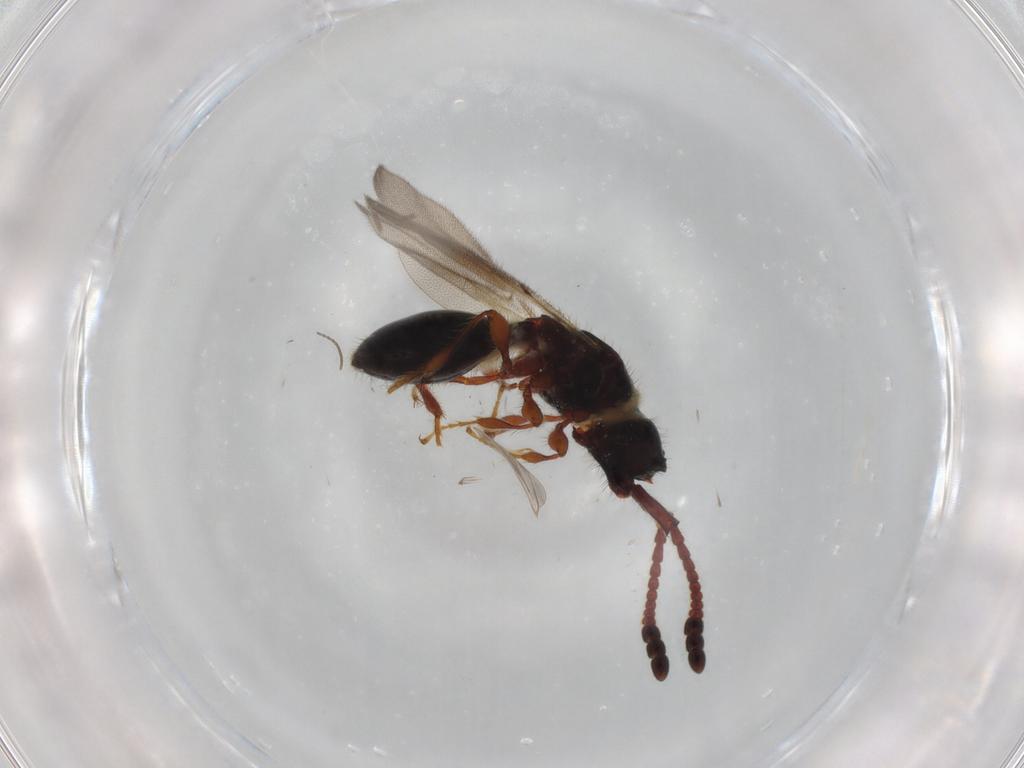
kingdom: Animalia
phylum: Arthropoda
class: Insecta
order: Hymenoptera
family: Diapriidae
